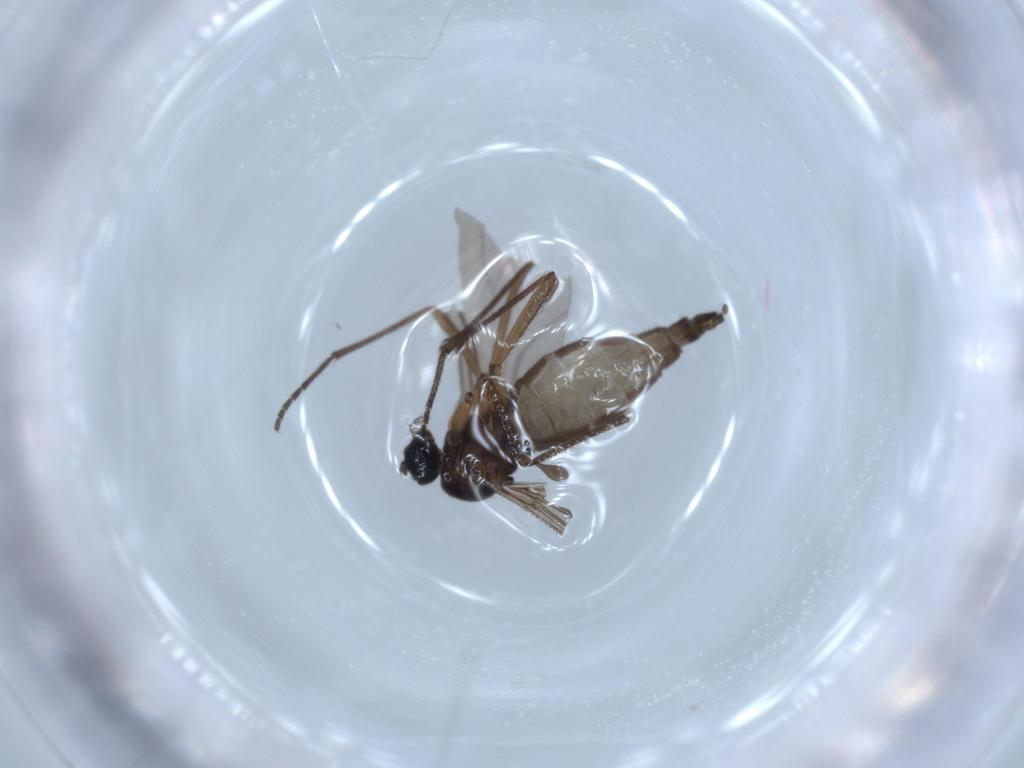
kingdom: Animalia
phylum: Arthropoda
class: Insecta
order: Diptera
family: Sciaridae
